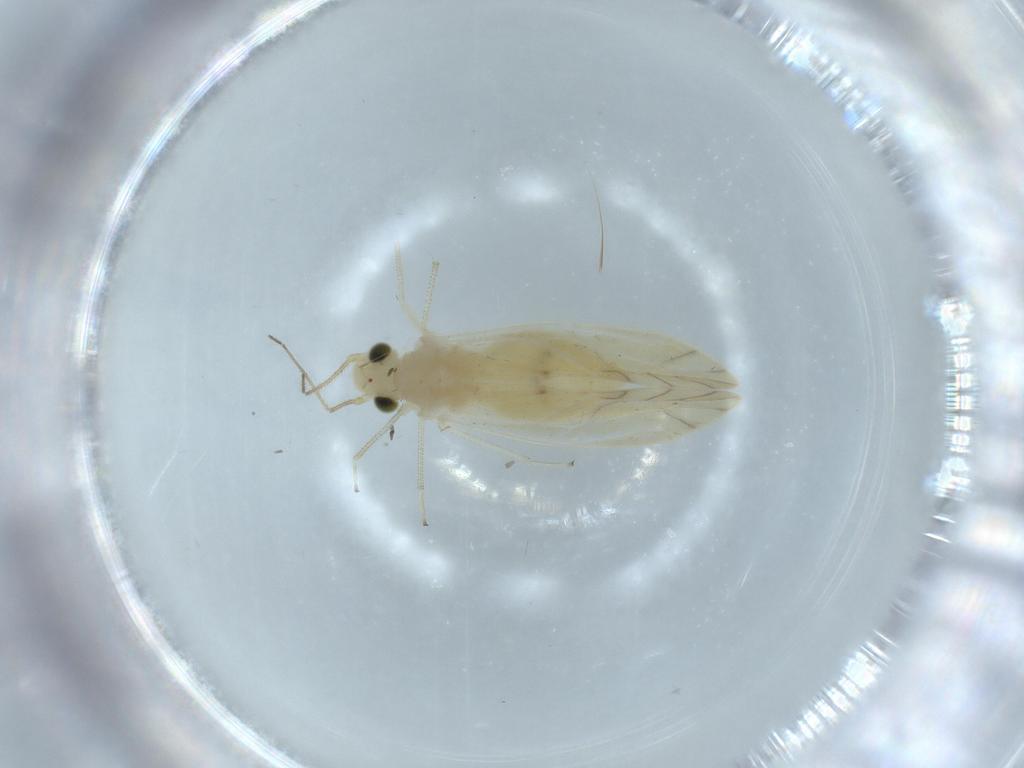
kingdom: Animalia
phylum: Arthropoda
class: Insecta
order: Psocodea
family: Caeciliusidae
